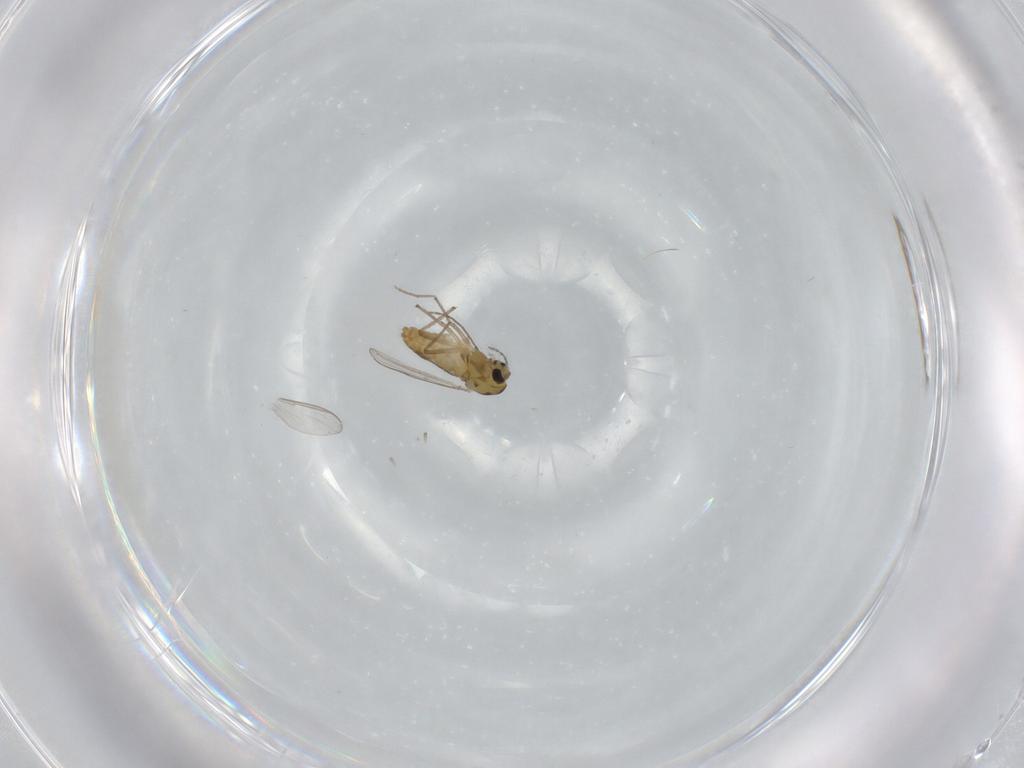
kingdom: Animalia
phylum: Arthropoda
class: Insecta
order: Diptera
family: Chironomidae
